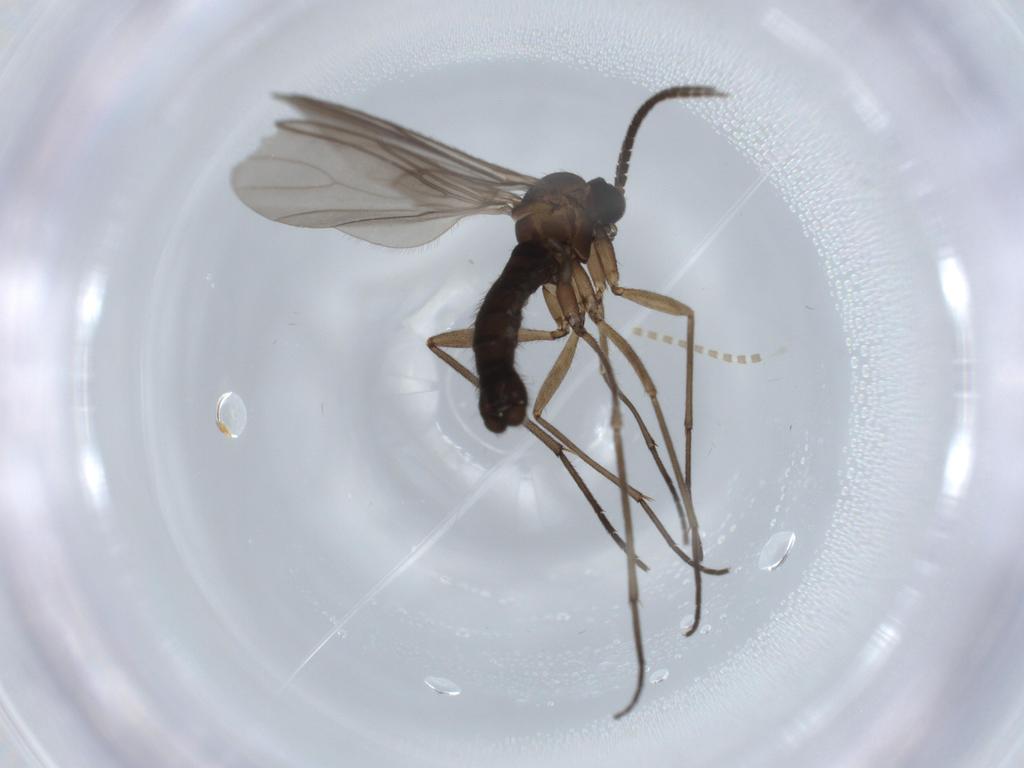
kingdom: Animalia
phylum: Arthropoda
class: Insecta
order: Diptera
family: Sciaridae
